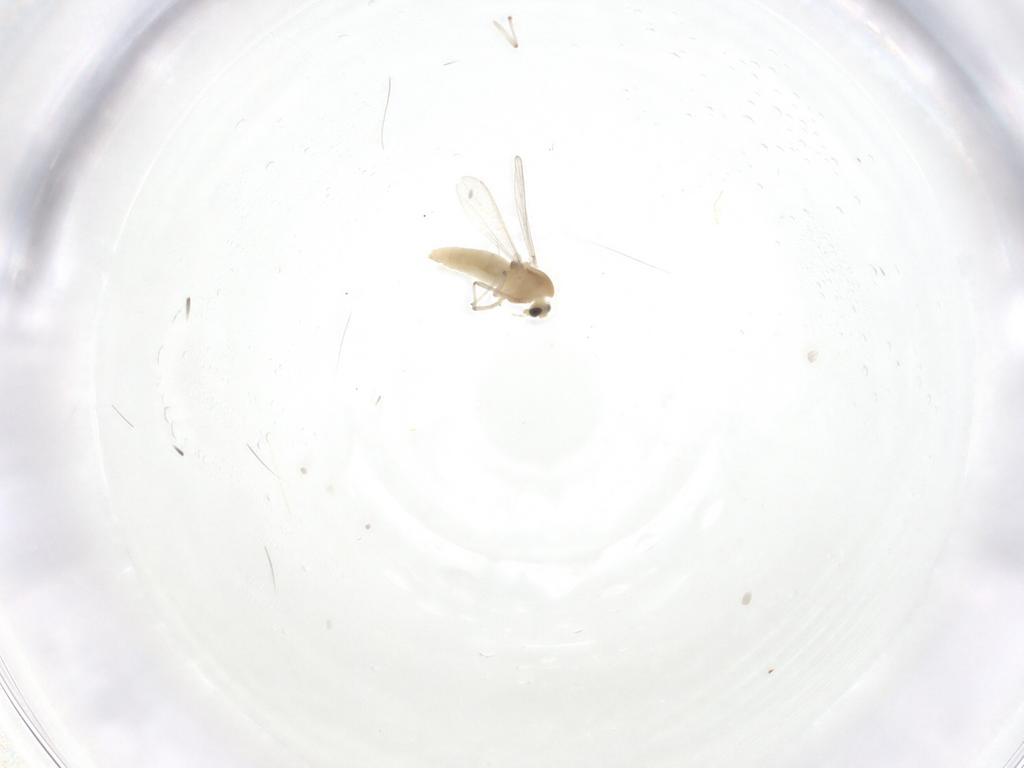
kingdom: Animalia
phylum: Arthropoda
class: Insecta
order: Diptera
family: Chironomidae
